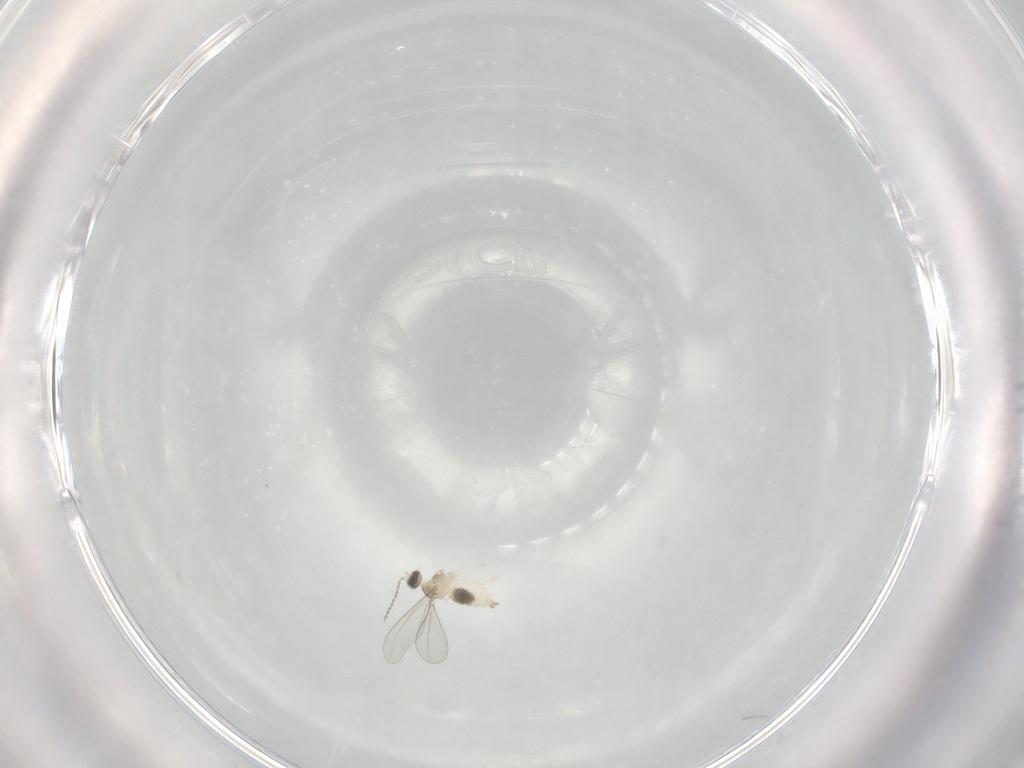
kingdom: Animalia
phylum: Arthropoda
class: Insecta
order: Diptera
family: Cecidomyiidae
